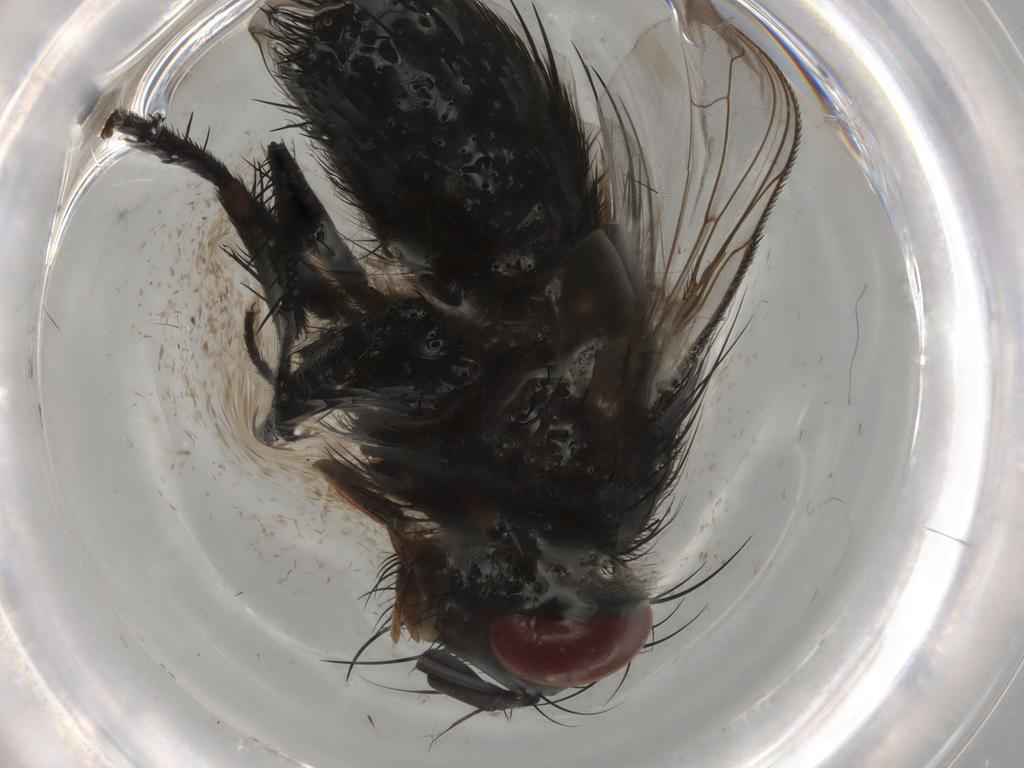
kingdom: Animalia
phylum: Arthropoda
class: Insecta
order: Diptera
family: Tachinidae
